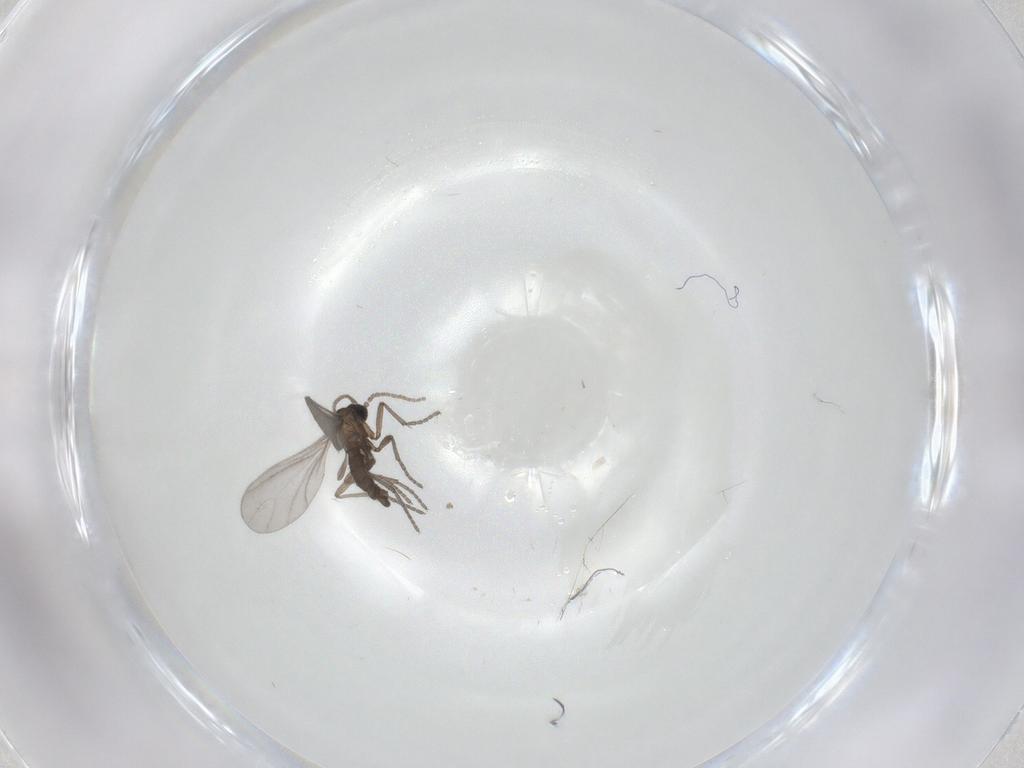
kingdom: Animalia
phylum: Arthropoda
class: Insecta
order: Diptera
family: Sciaridae
